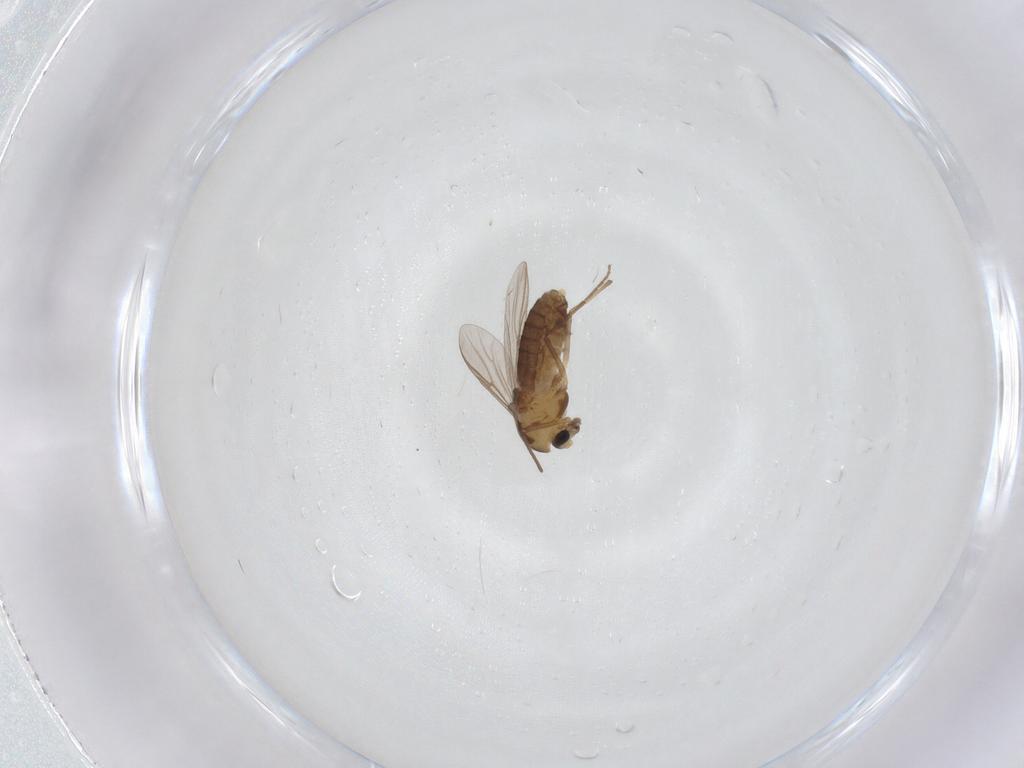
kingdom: Animalia
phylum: Arthropoda
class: Insecta
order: Diptera
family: Chironomidae
